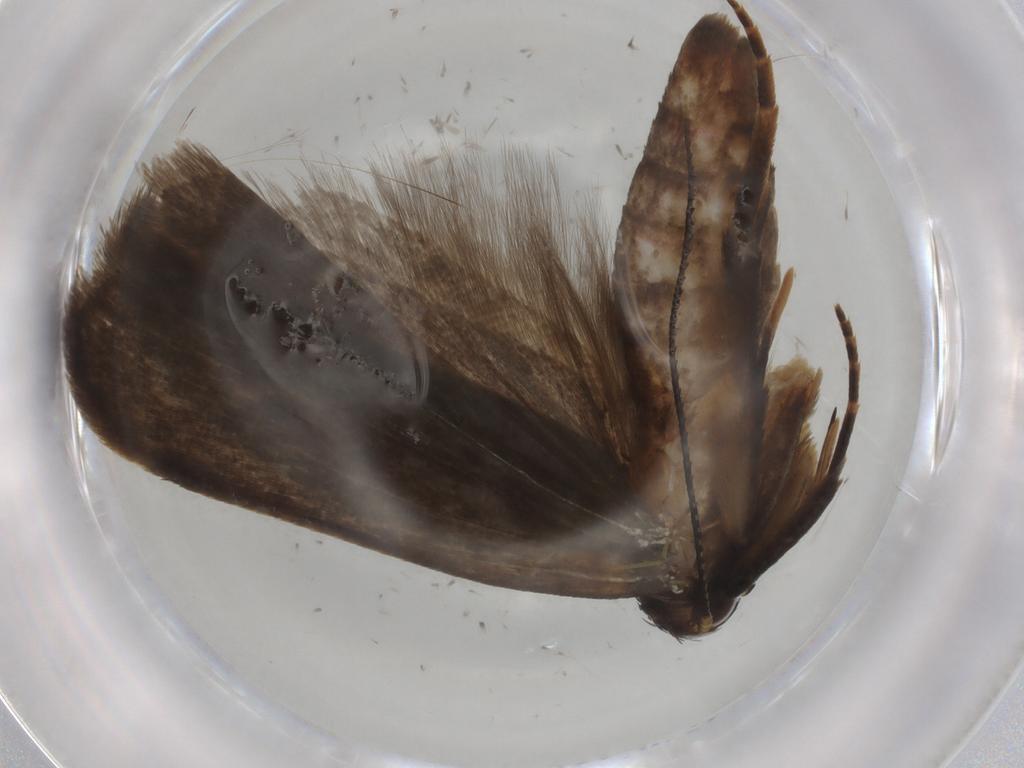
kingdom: Animalia
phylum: Arthropoda
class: Insecta
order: Lepidoptera
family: Gelechiidae
